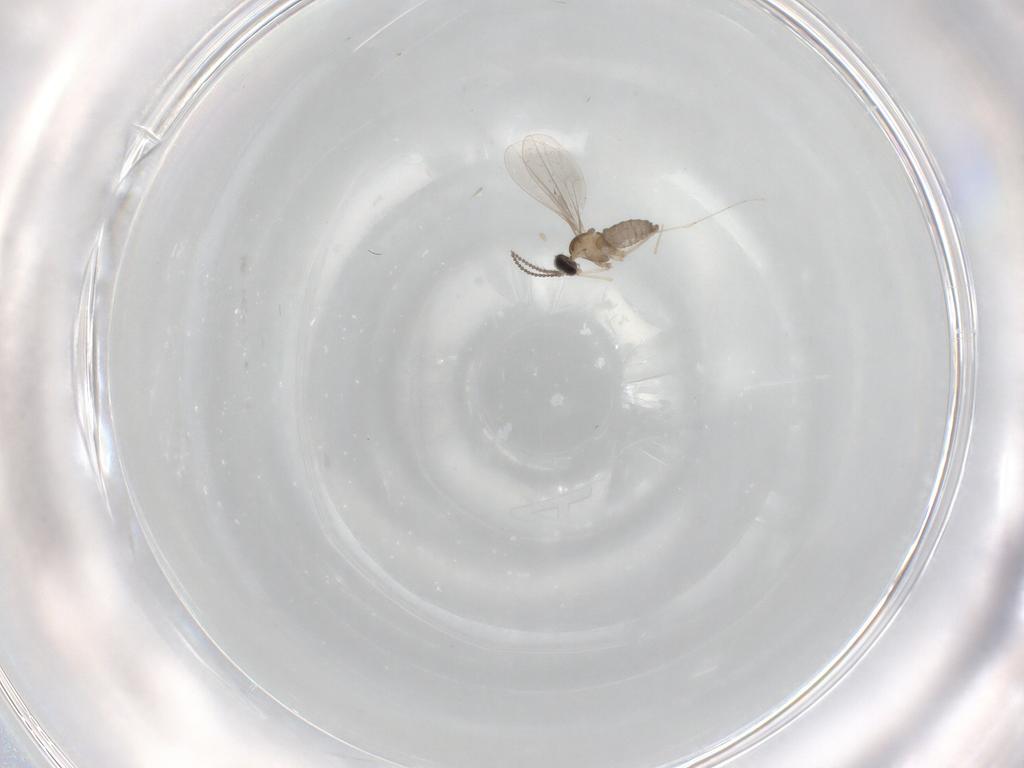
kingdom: Animalia
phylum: Arthropoda
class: Insecta
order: Diptera
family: Cecidomyiidae
